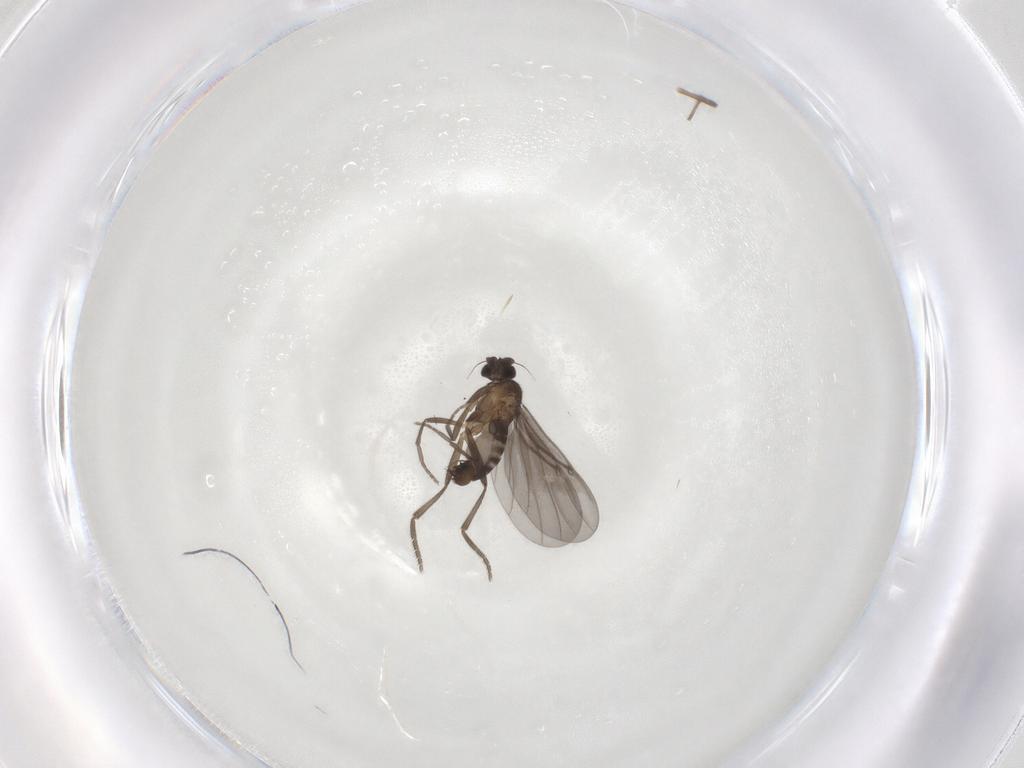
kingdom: Animalia
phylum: Arthropoda
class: Insecta
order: Diptera
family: Phoridae
